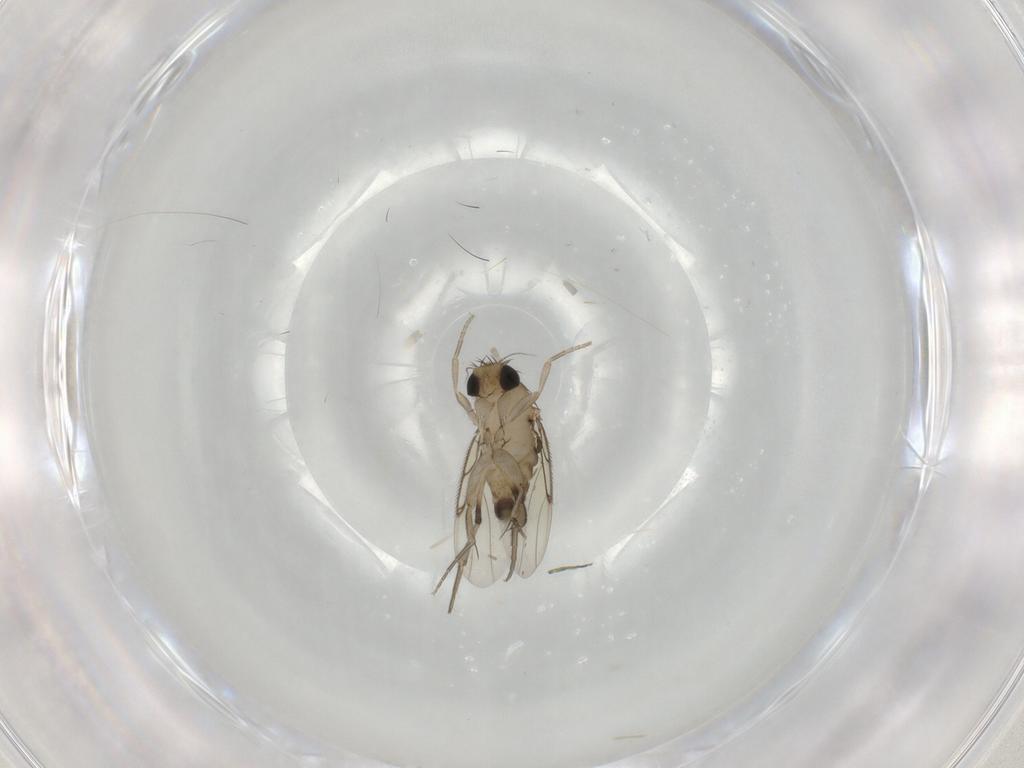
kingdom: Animalia
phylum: Arthropoda
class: Insecta
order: Diptera
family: Phoridae
